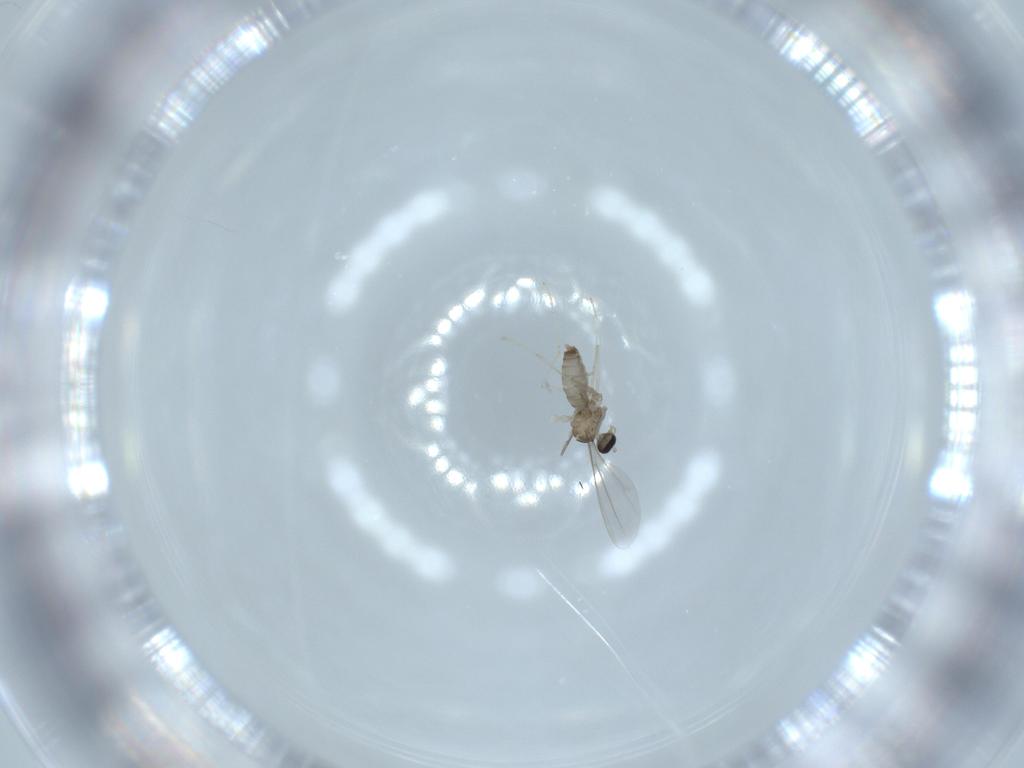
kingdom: Animalia
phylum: Arthropoda
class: Insecta
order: Diptera
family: Cecidomyiidae
